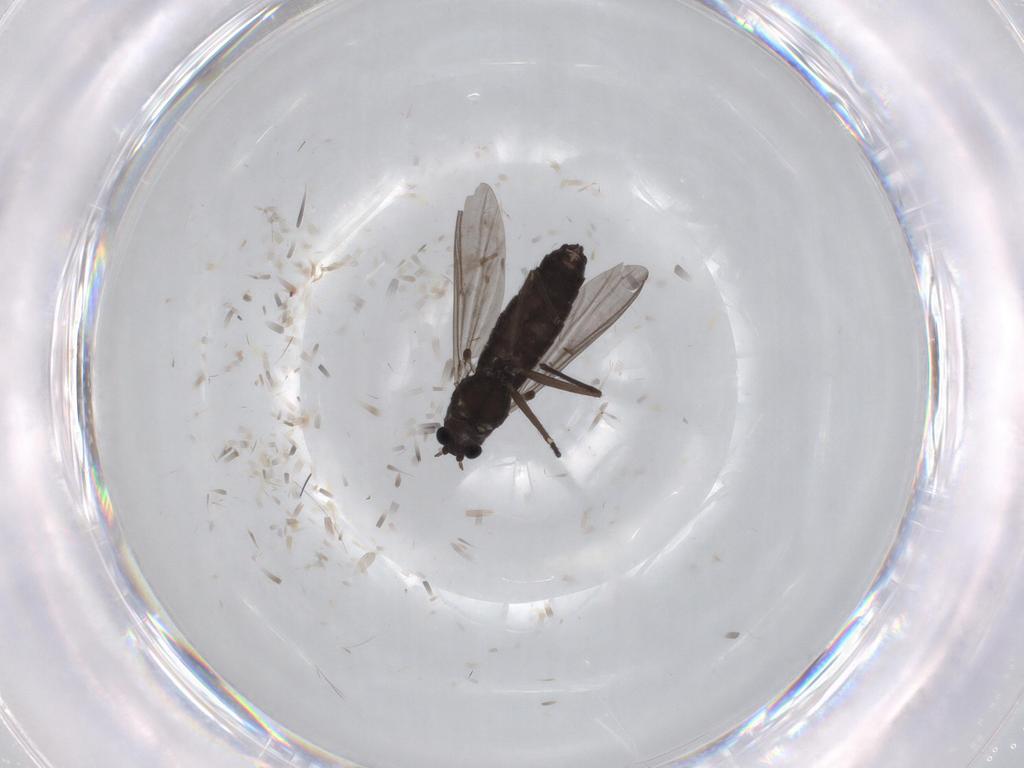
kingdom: Animalia
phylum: Arthropoda
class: Insecta
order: Diptera
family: Chironomidae
